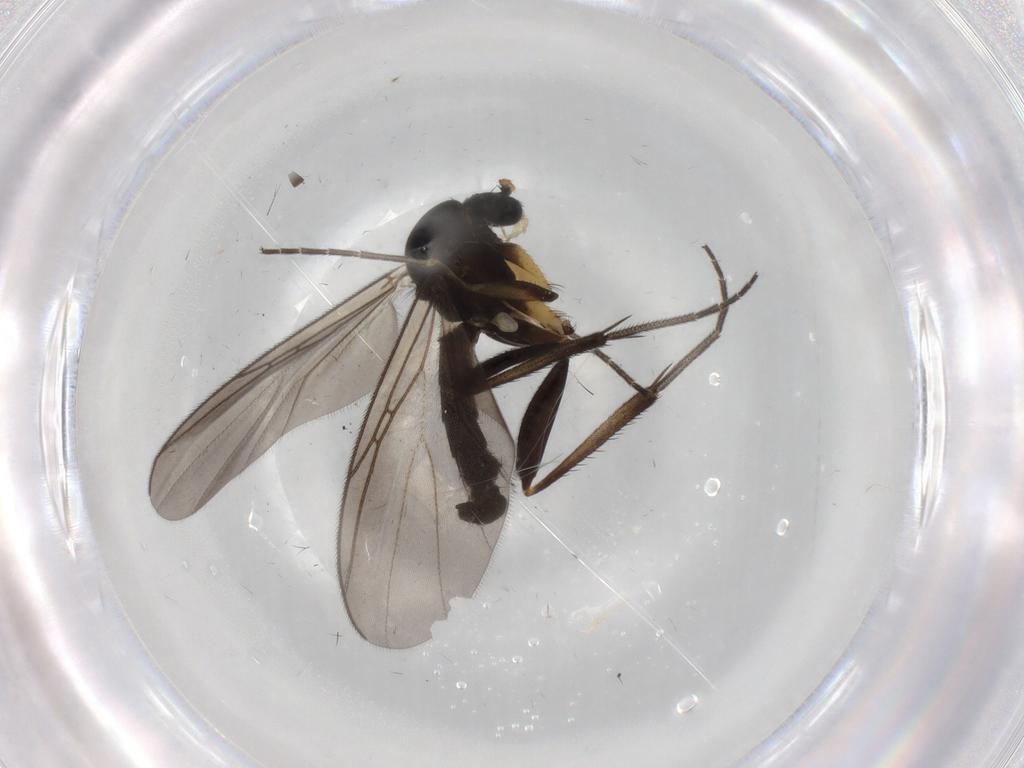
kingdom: Animalia
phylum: Arthropoda
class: Insecta
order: Diptera
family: Mycetophilidae
